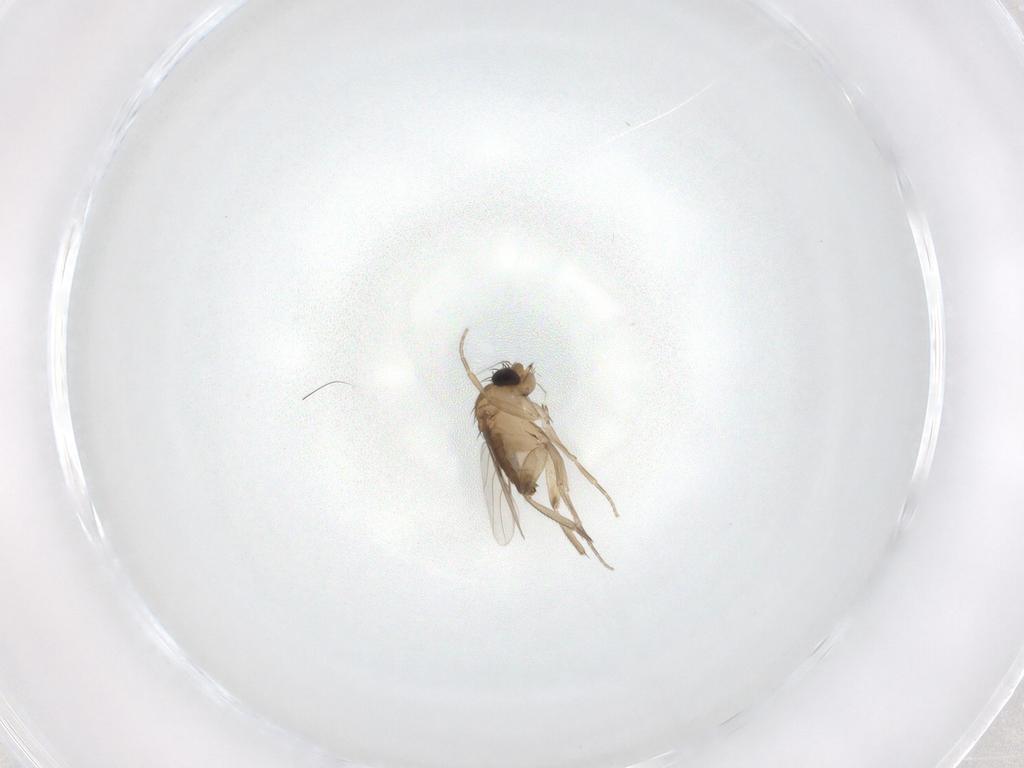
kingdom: Animalia
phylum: Arthropoda
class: Insecta
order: Diptera
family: Phoridae
